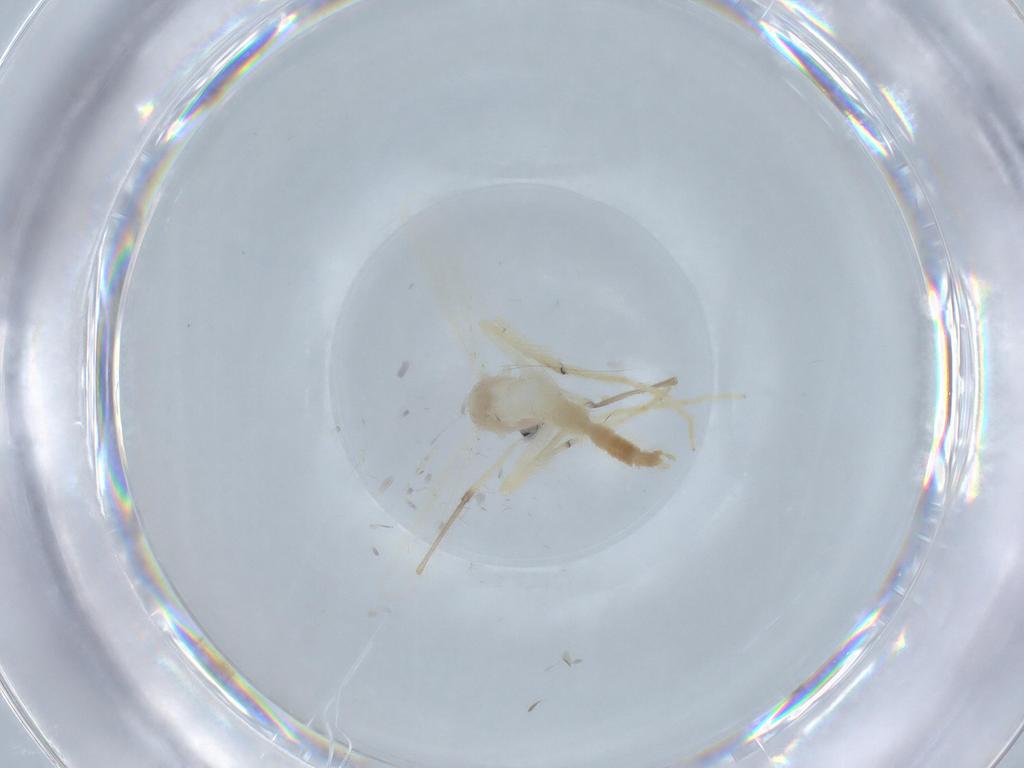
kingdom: Animalia
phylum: Arthropoda
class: Insecta
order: Diptera
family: Chironomidae
